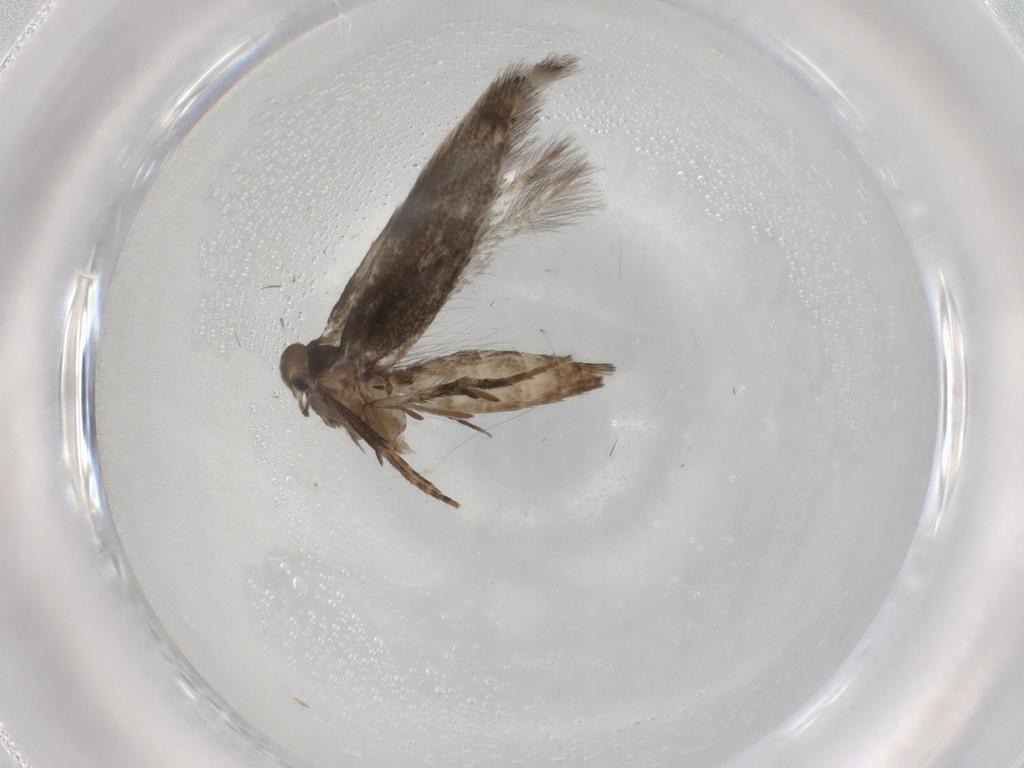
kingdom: Animalia
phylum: Arthropoda
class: Insecta
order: Lepidoptera
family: Elachistidae
